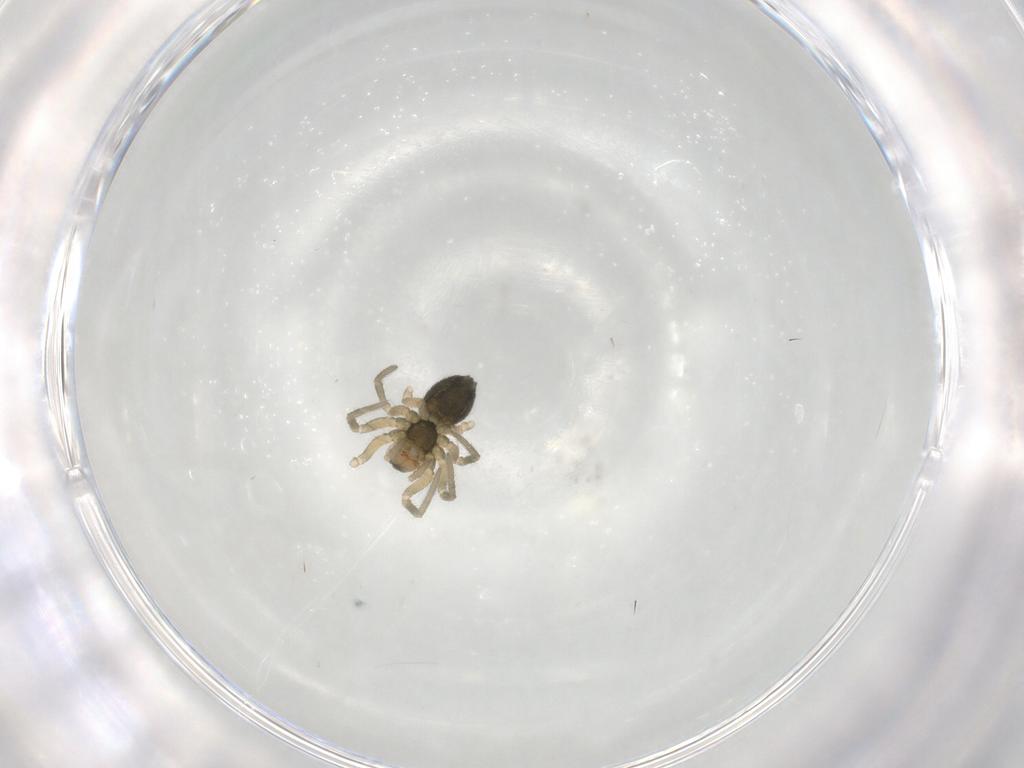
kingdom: Animalia
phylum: Arthropoda
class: Arachnida
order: Araneae
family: Linyphiidae
